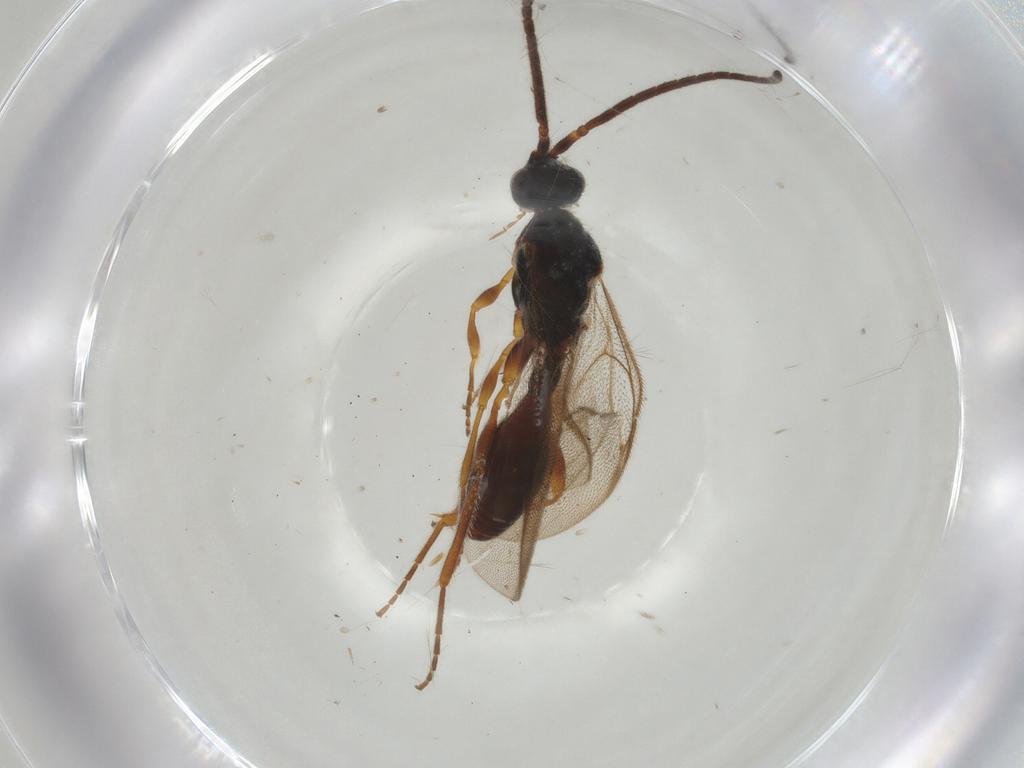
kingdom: Animalia
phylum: Arthropoda
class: Insecta
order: Hymenoptera
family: Diapriidae
